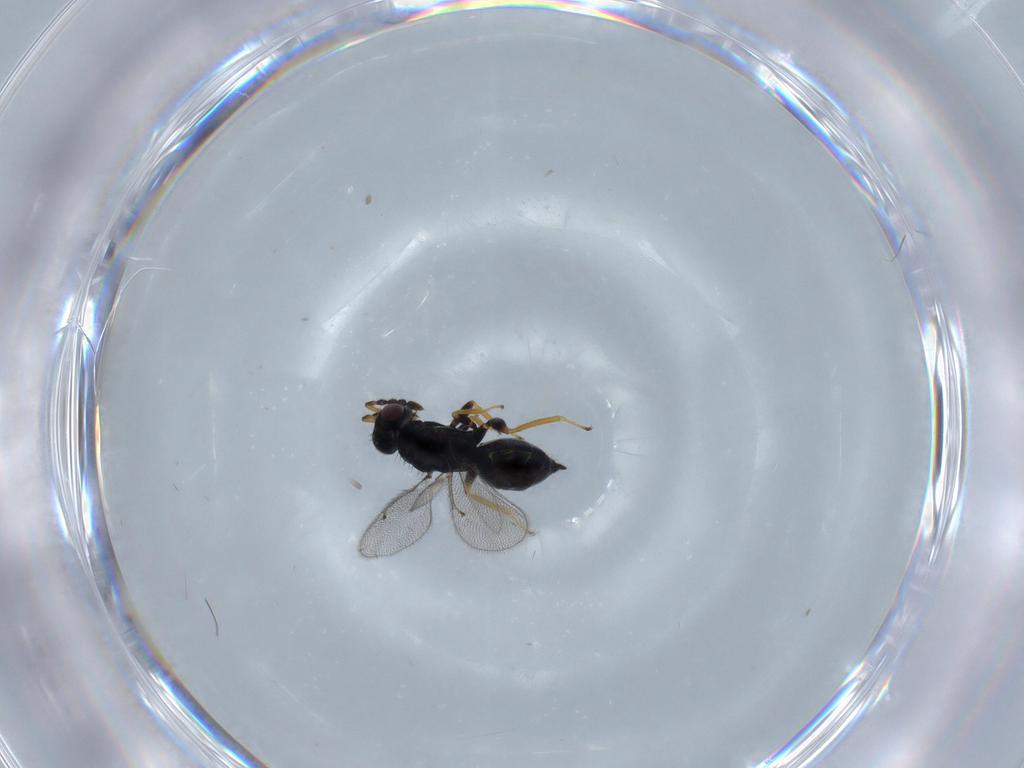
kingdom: Animalia
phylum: Arthropoda
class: Insecta
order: Hymenoptera
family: Eulophidae
